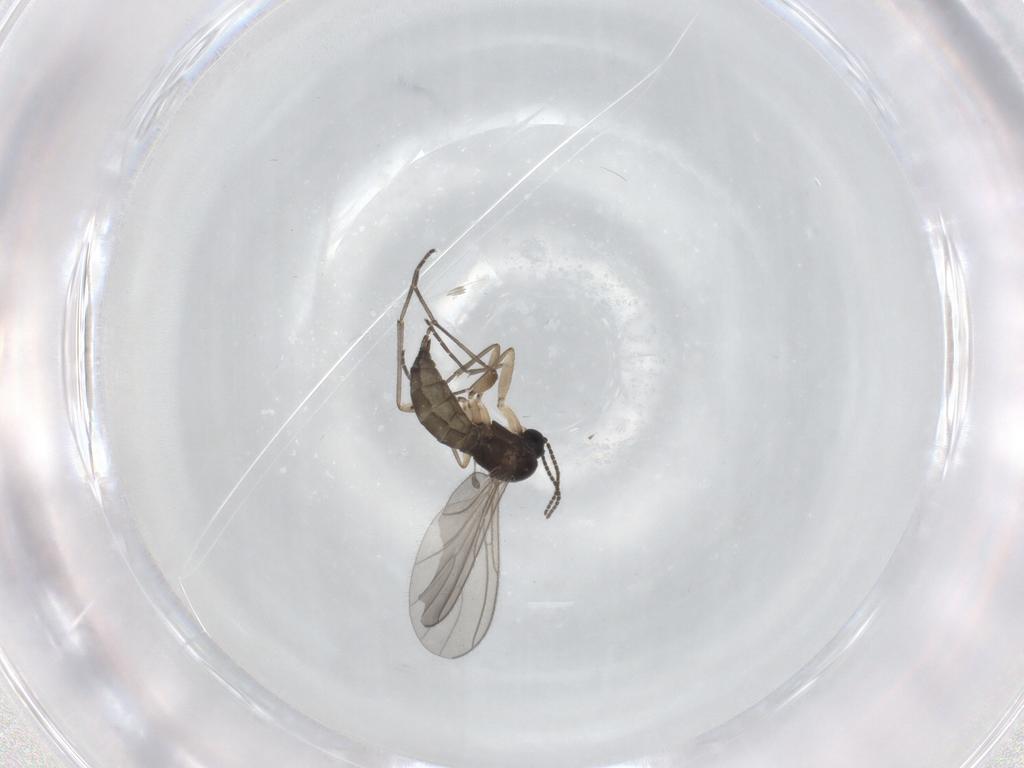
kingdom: Animalia
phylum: Arthropoda
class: Insecta
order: Diptera
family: Sciaridae
